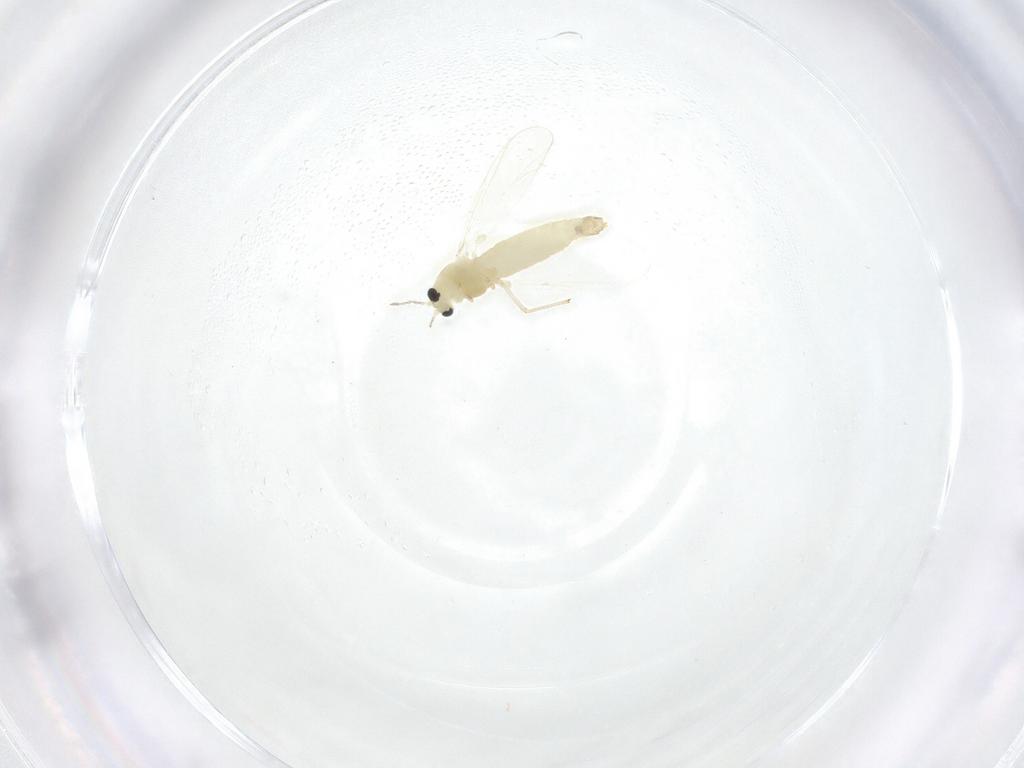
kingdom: Animalia
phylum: Arthropoda
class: Insecta
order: Diptera
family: Chironomidae
